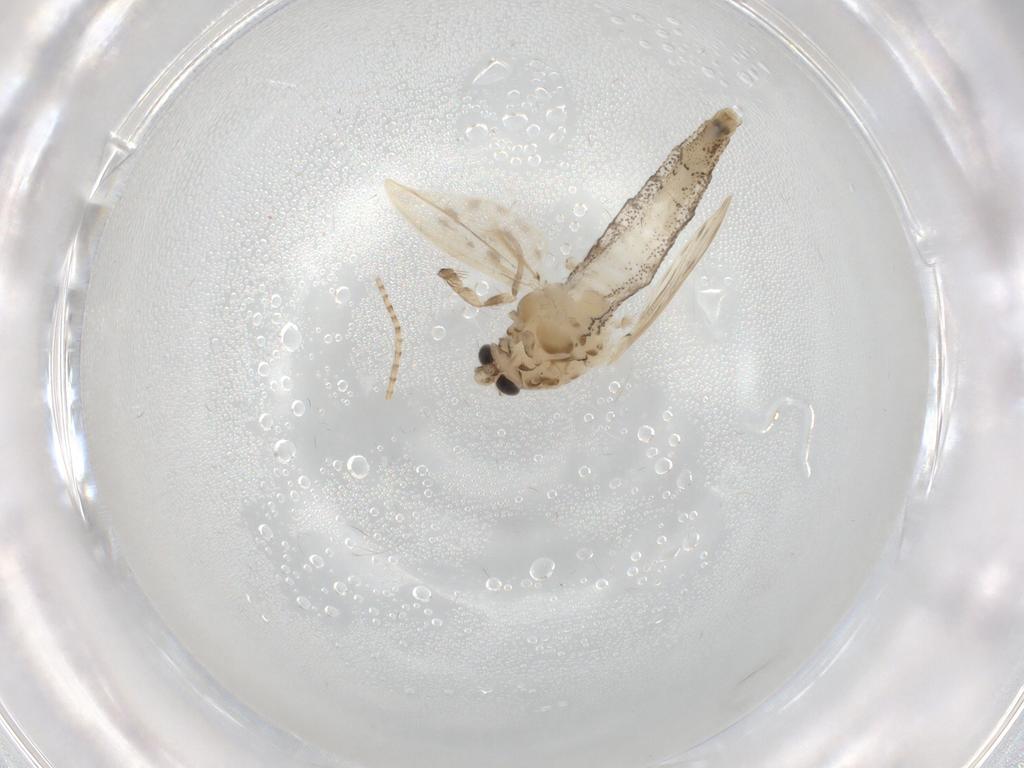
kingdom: Animalia
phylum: Arthropoda
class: Insecta
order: Diptera
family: Chaoboridae
